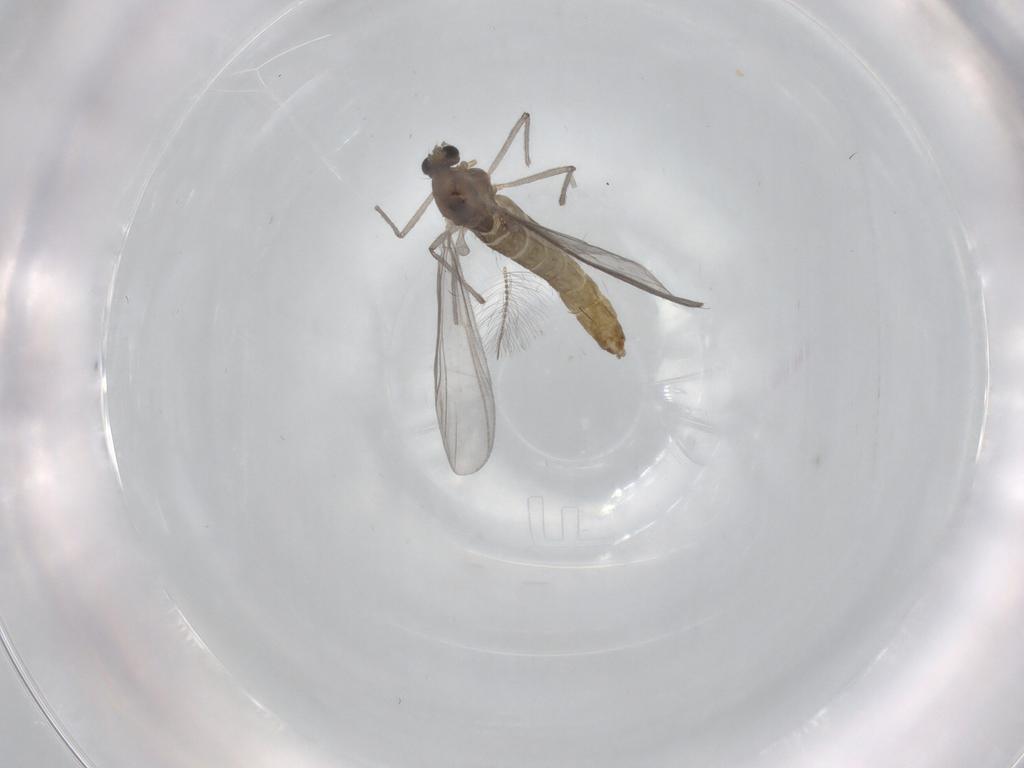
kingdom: Animalia
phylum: Arthropoda
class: Insecta
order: Diptera
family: Chironomidae
